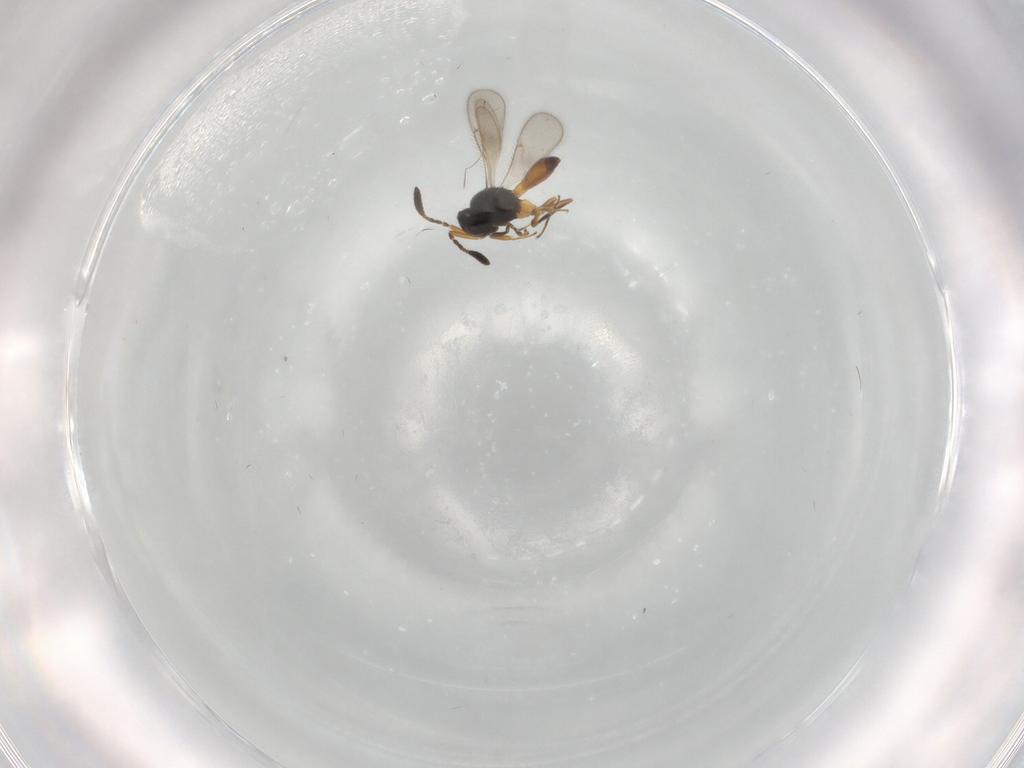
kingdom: Animalia
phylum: Arthropoda
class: Insecta
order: Hymenoptera
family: Scelionidae
